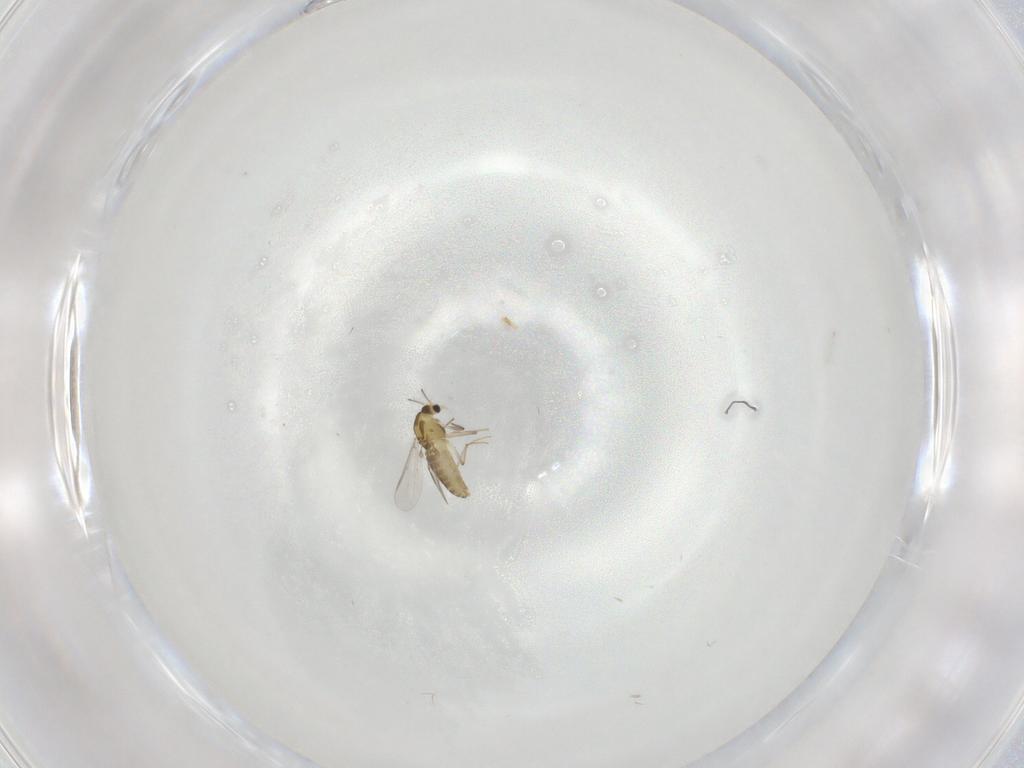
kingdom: Animalia
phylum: Arthropoda
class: Insecta
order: Diptera
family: Chironomidae
